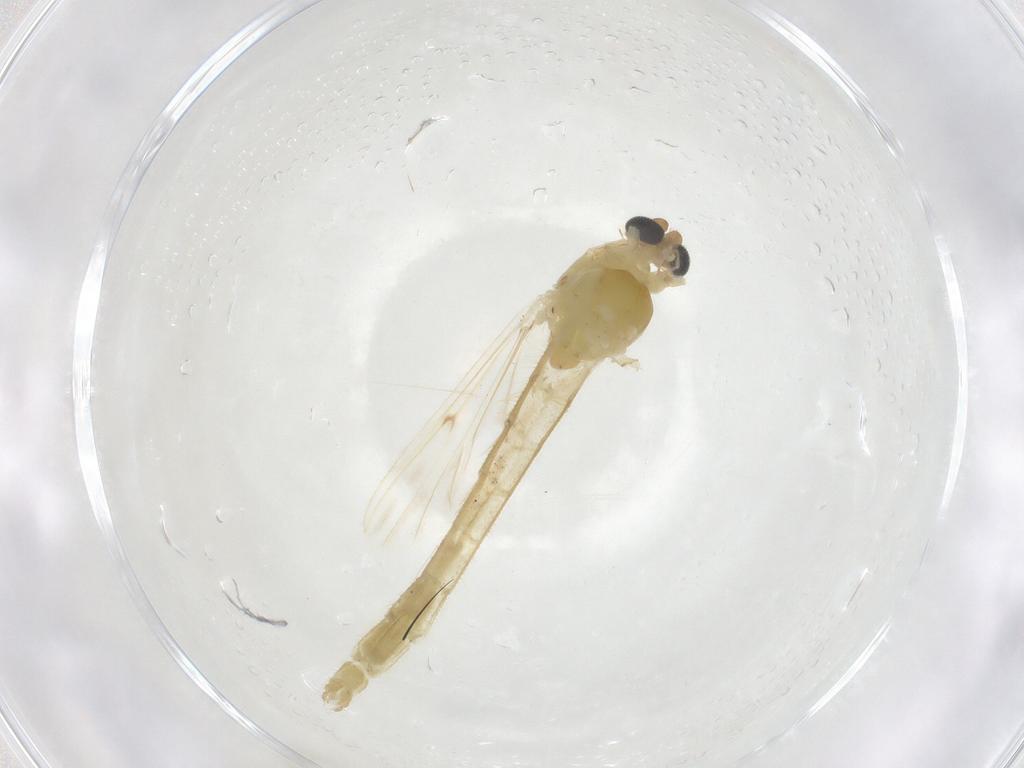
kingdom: Animalia
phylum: Arthropoda
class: Insecta
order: Diptera
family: Chironomidae
